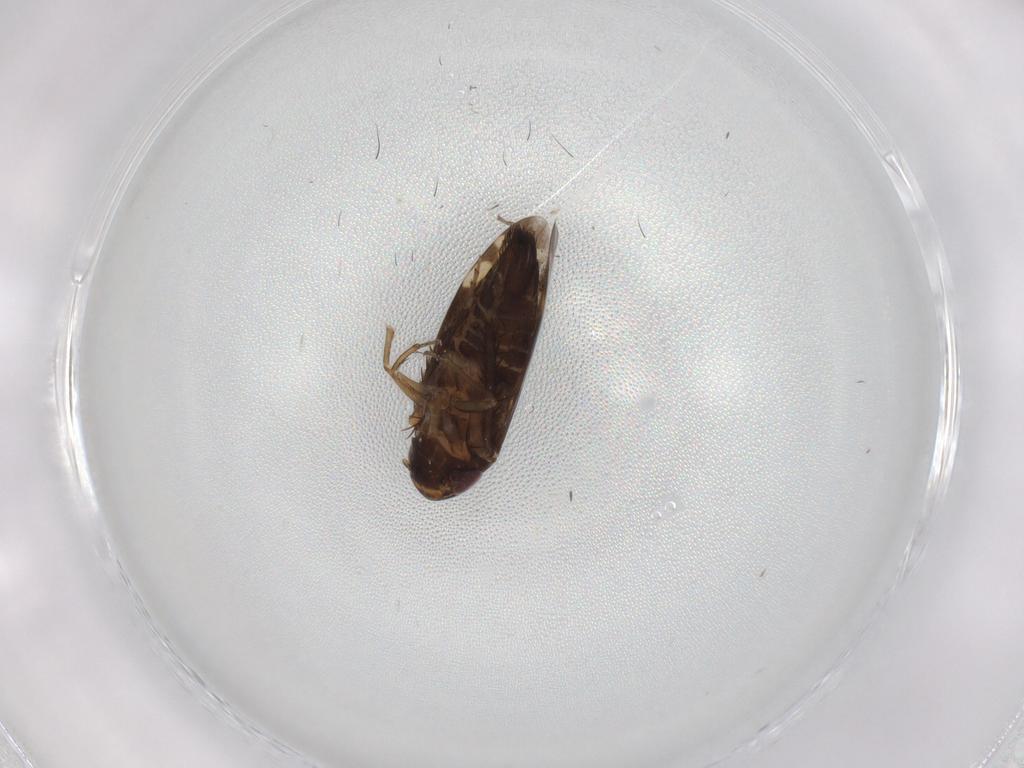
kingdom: Animalia
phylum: Arthropoda
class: Insecta
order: Hemiptera
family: Cicadellidae
